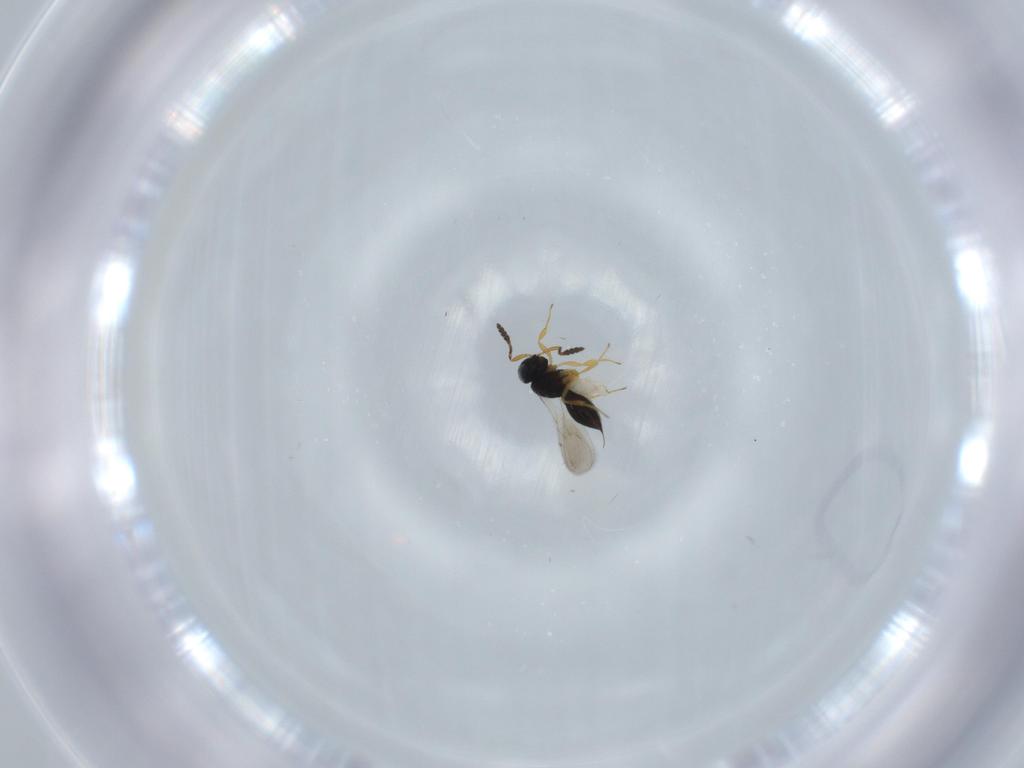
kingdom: Animalia
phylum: Arthropoda
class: Insecta
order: Hymenoptera
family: Scelionidae
